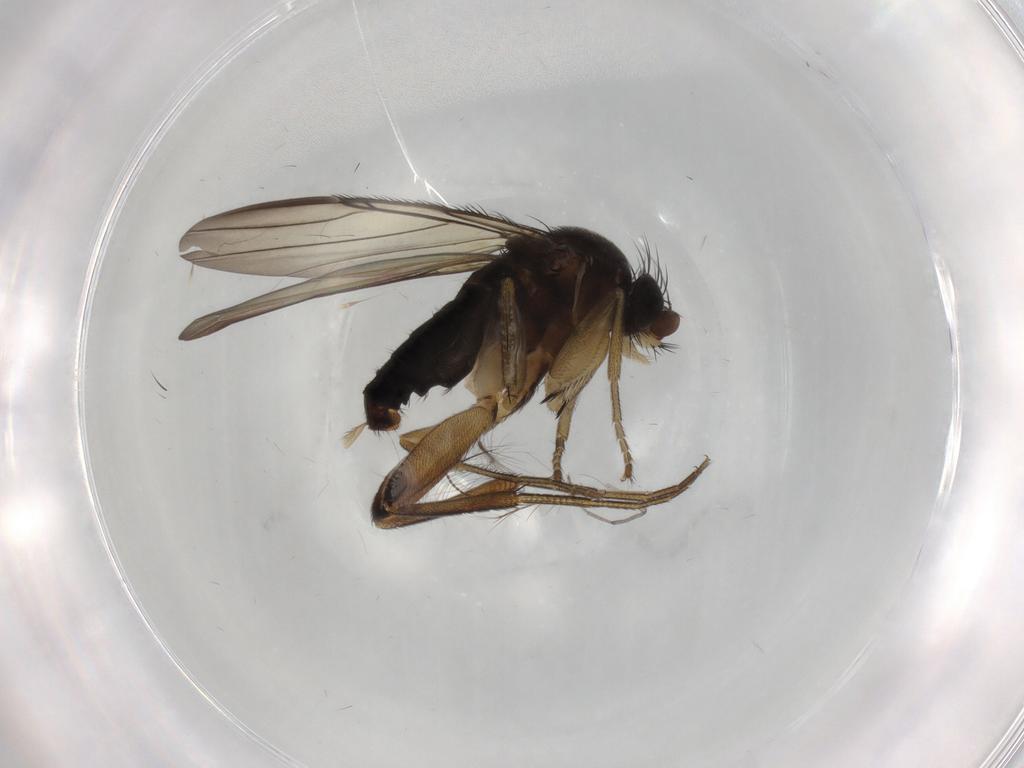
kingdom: Animalia
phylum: Arthropoda
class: Insecta
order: Diptera
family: Chironomidae
